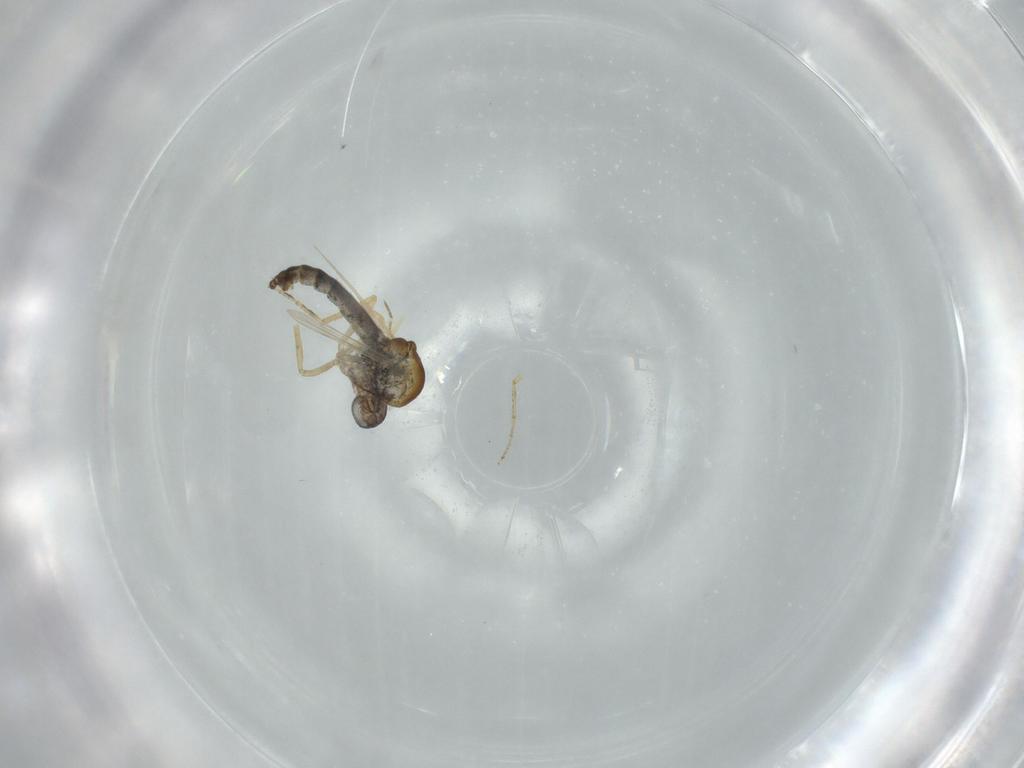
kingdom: Animalia
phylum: Arthropoda
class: Insecta
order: Diptera
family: Ceratopogonidae
